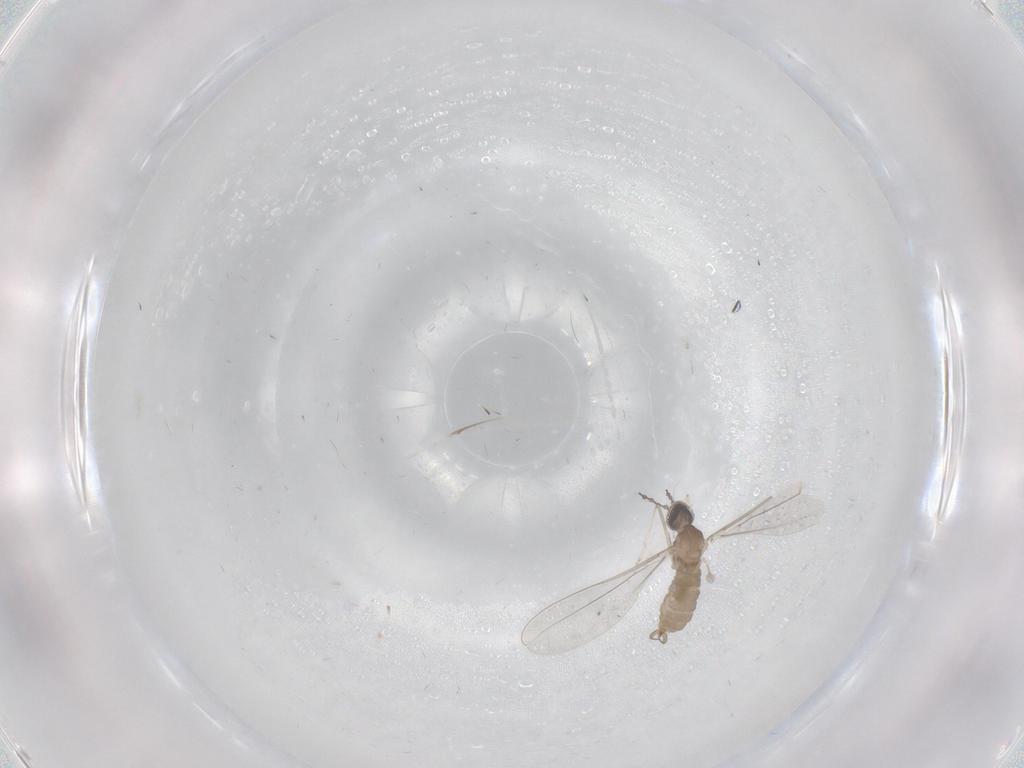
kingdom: Animalia
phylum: Arthropoda
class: Insecta
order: Diptera
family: Cecidomyiidae
